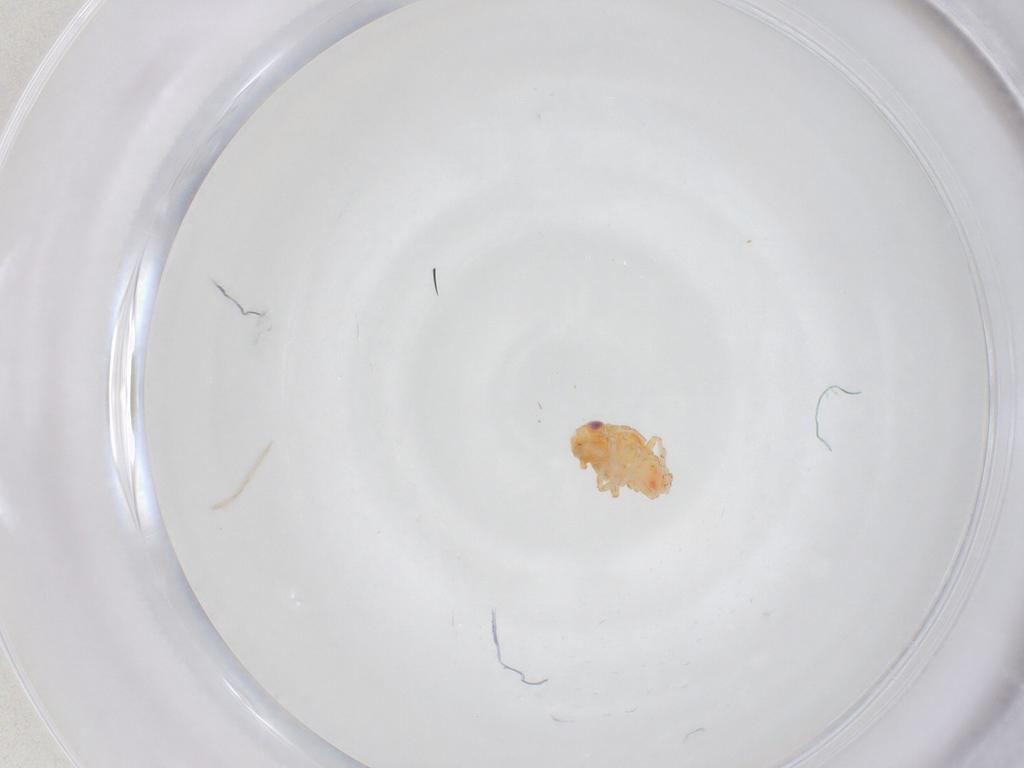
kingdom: Animalia
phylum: Arthropoda
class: Insecta
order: Hemiptera
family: Issidae
